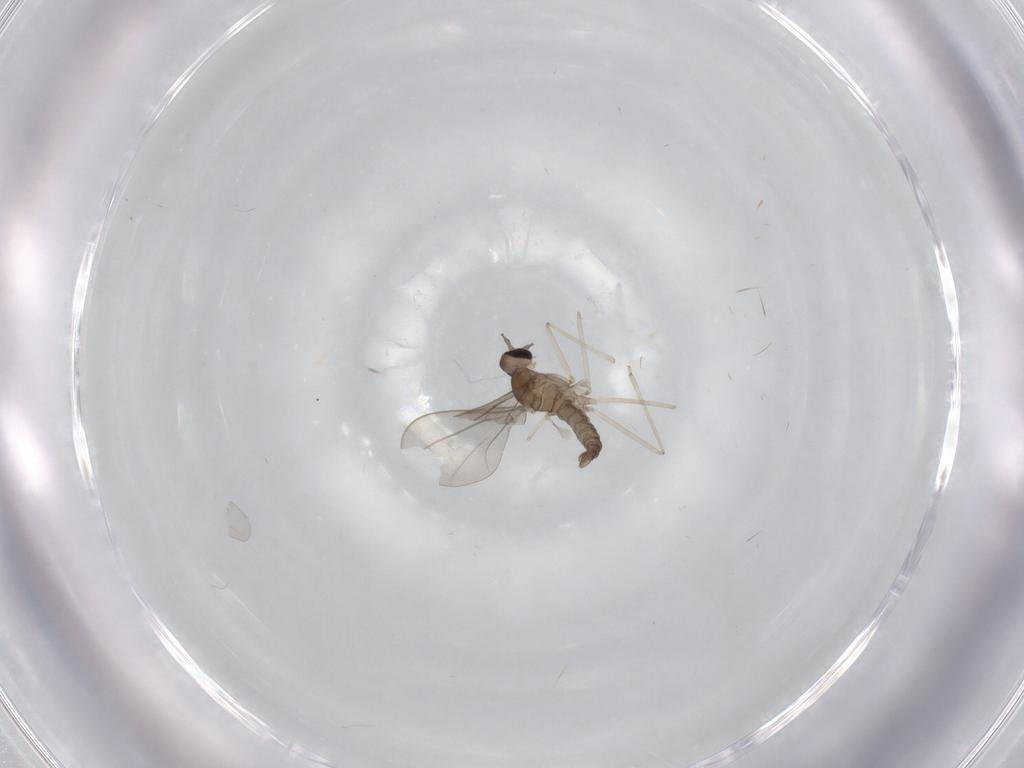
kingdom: Animalia
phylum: Arthropoda
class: Insecta
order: Diptera
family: Cecidomyiidae
